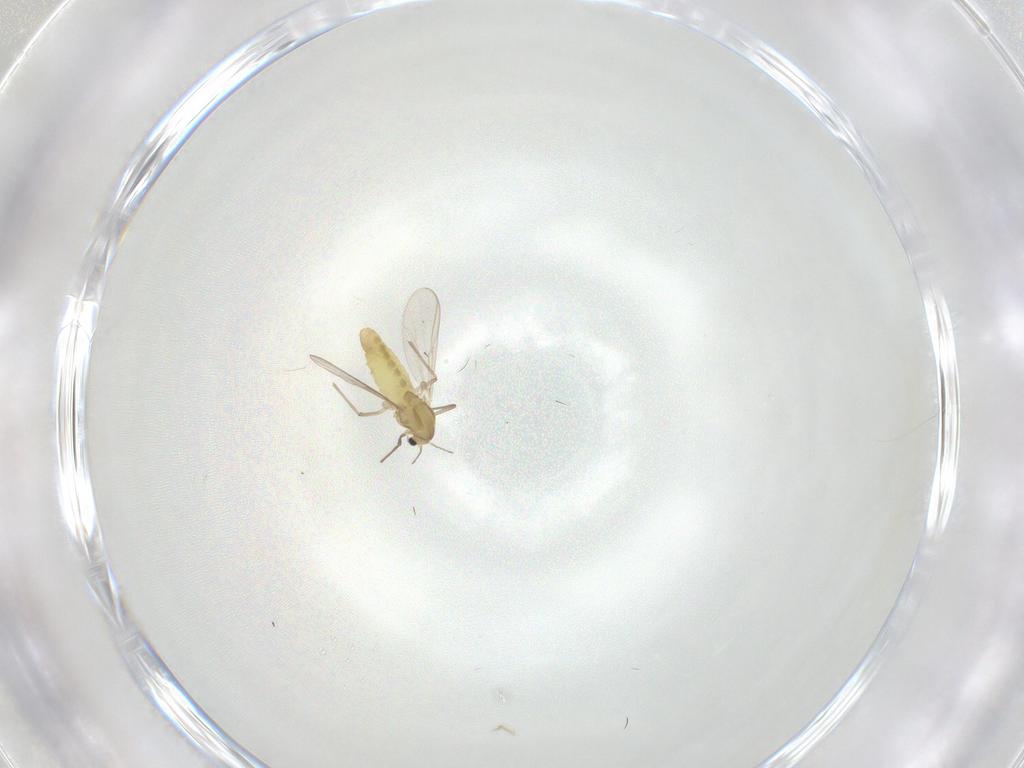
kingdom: Animalia
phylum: Arthropoda
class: Insecta
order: Diptera
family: Chironomidae
